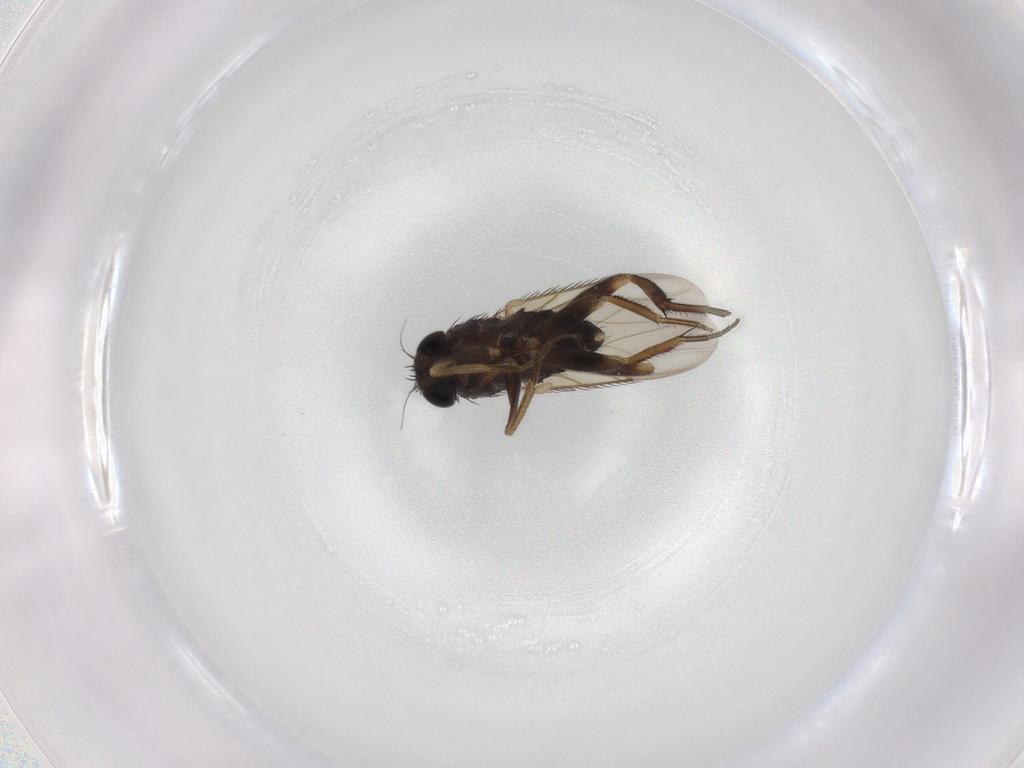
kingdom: Animalia
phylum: Arthropoda
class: Insecta
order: Diptera
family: Phoridae
